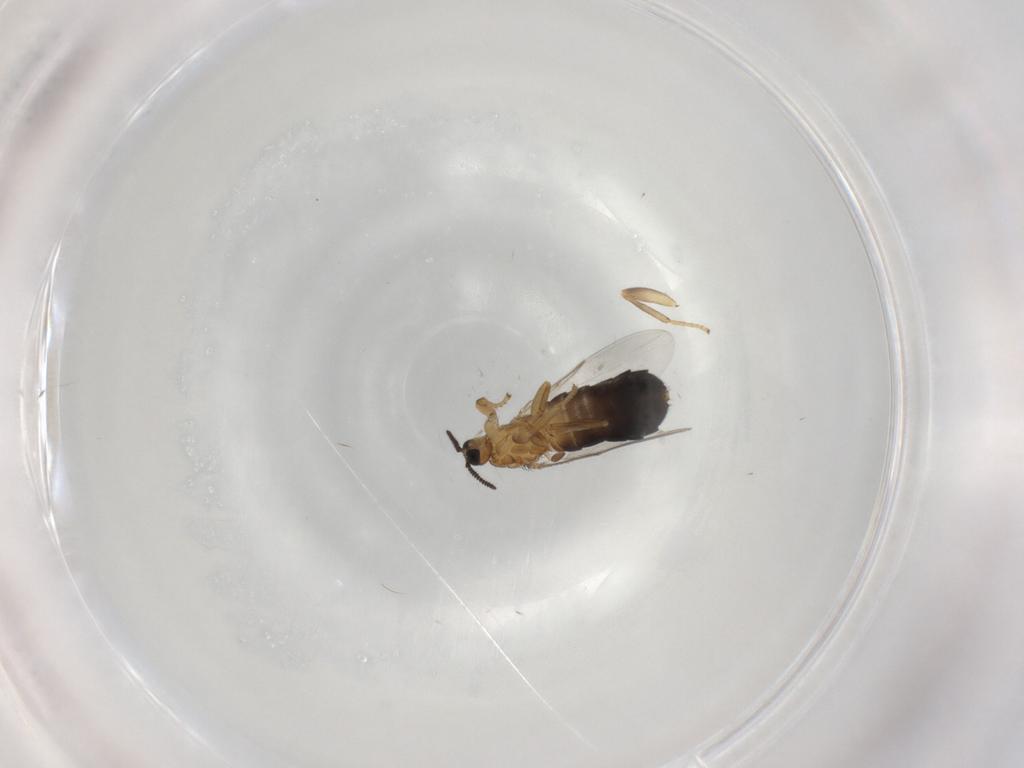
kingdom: Animalia
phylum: Arthropoda
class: Insecta
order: Diptera
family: Scatopsidae
